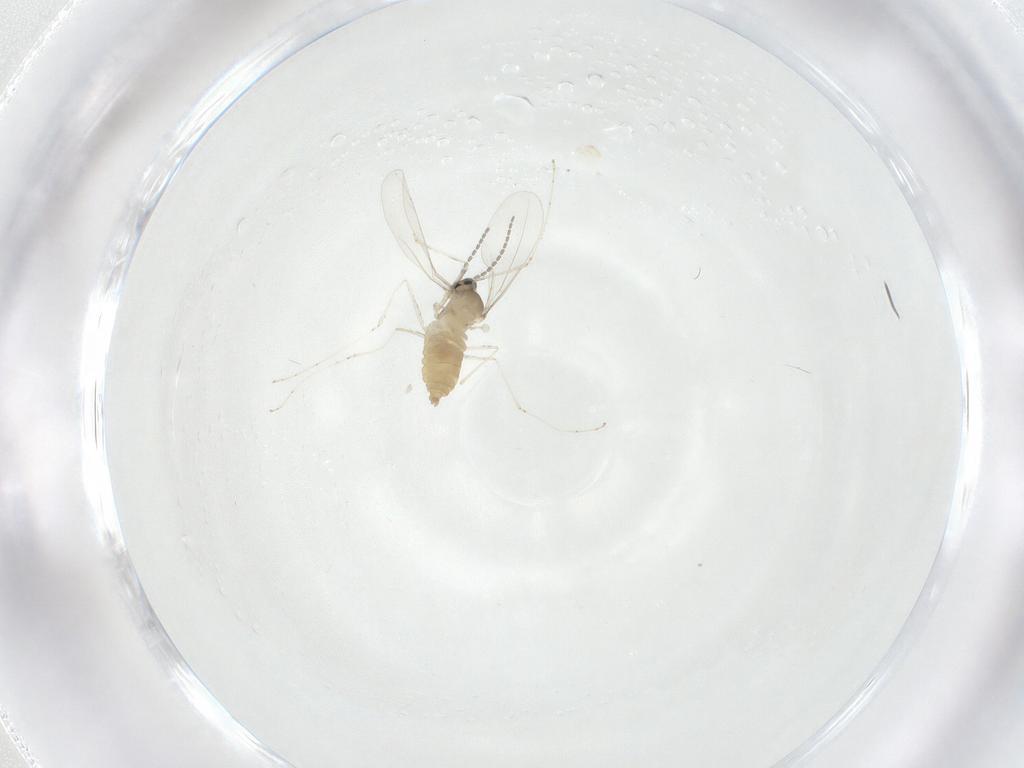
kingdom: Animalia
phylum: Arthropoda
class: Insecta
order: Diptera
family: Cecidomyiidae
